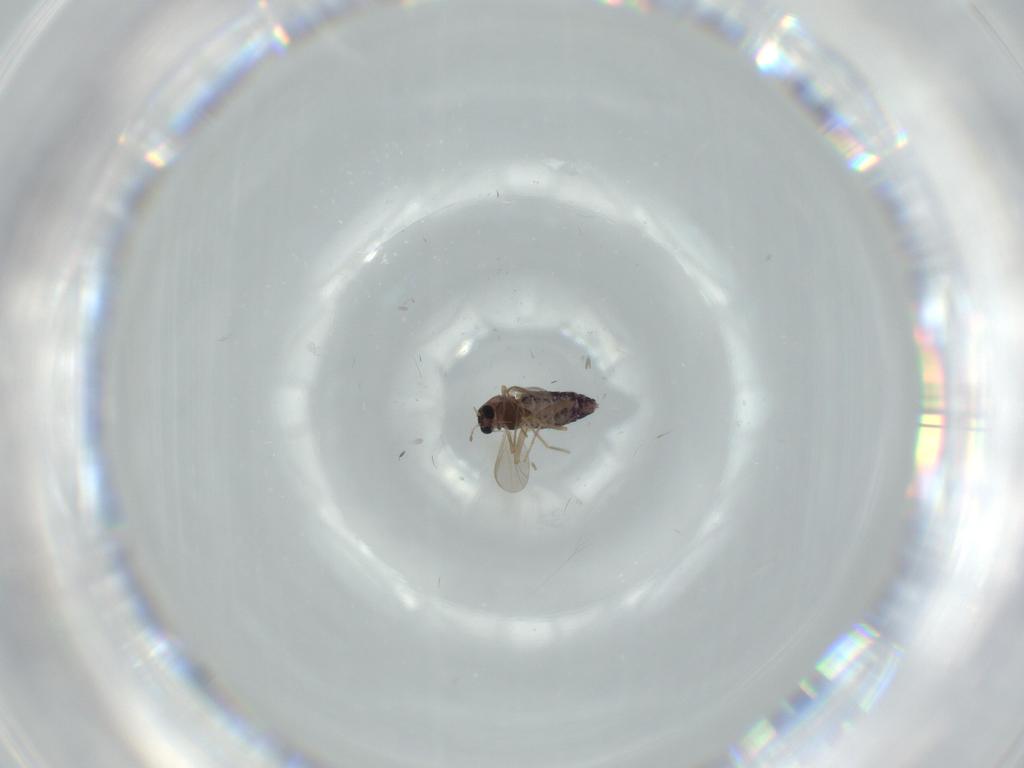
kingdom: Animalia
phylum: Arthropoda
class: Insecta
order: Diptera
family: Chironomidae
